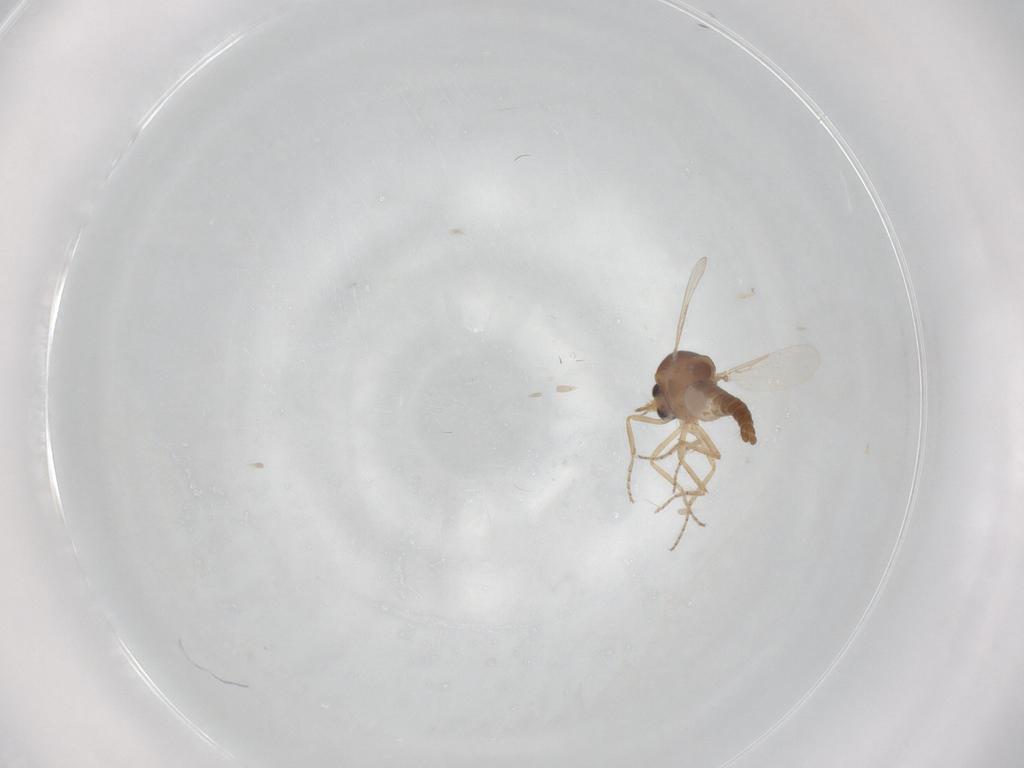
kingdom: Animalia
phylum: Arthropoda
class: Insecta
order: Diptera
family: Ceratopogonidae
